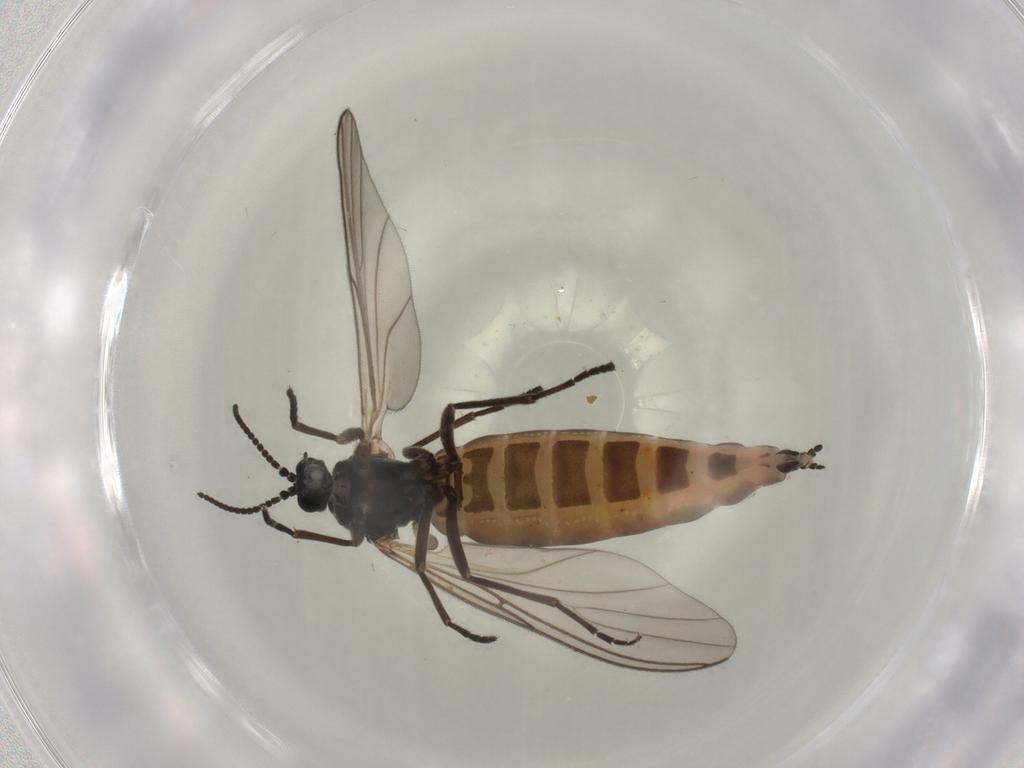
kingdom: Animalia
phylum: Arthropoda
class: Insecta
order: Diptera
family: Sciaridae
